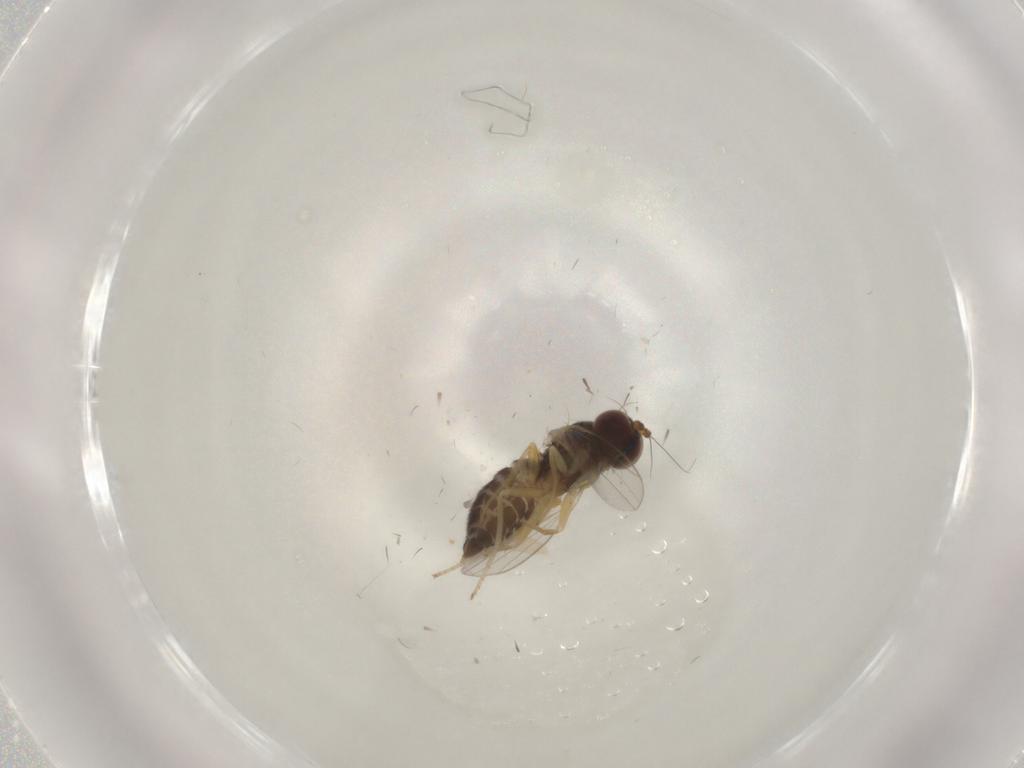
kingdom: Animalia
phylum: Arthropoda
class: Insecta
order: Diptera
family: Dolichopodidae
